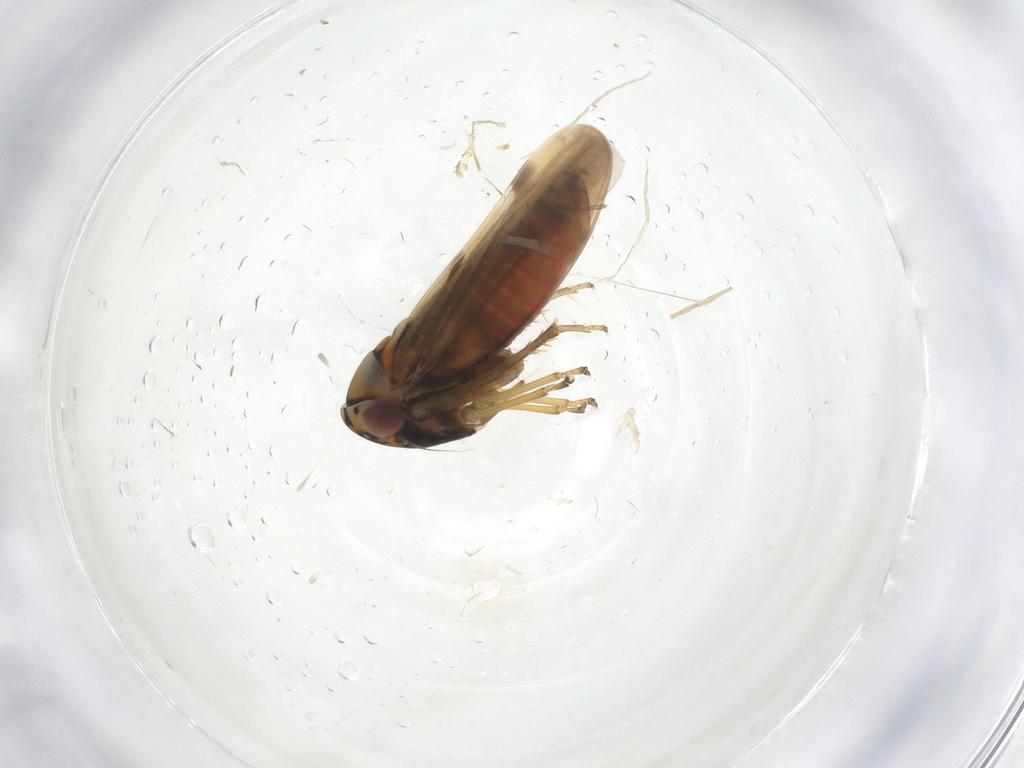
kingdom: Animalia
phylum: Arthropoda
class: Insecta
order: Hemiptera
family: Cicadellidae
